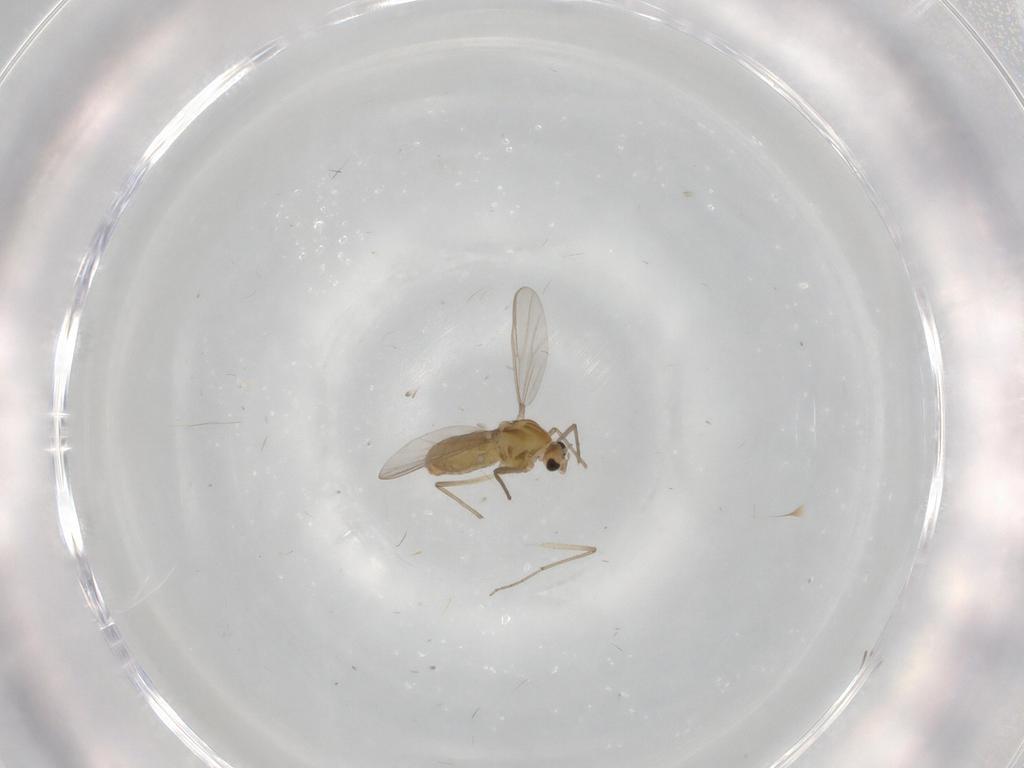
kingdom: Animalia
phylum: Arthropoda
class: Insecta
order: Diptera
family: Chironomidae
